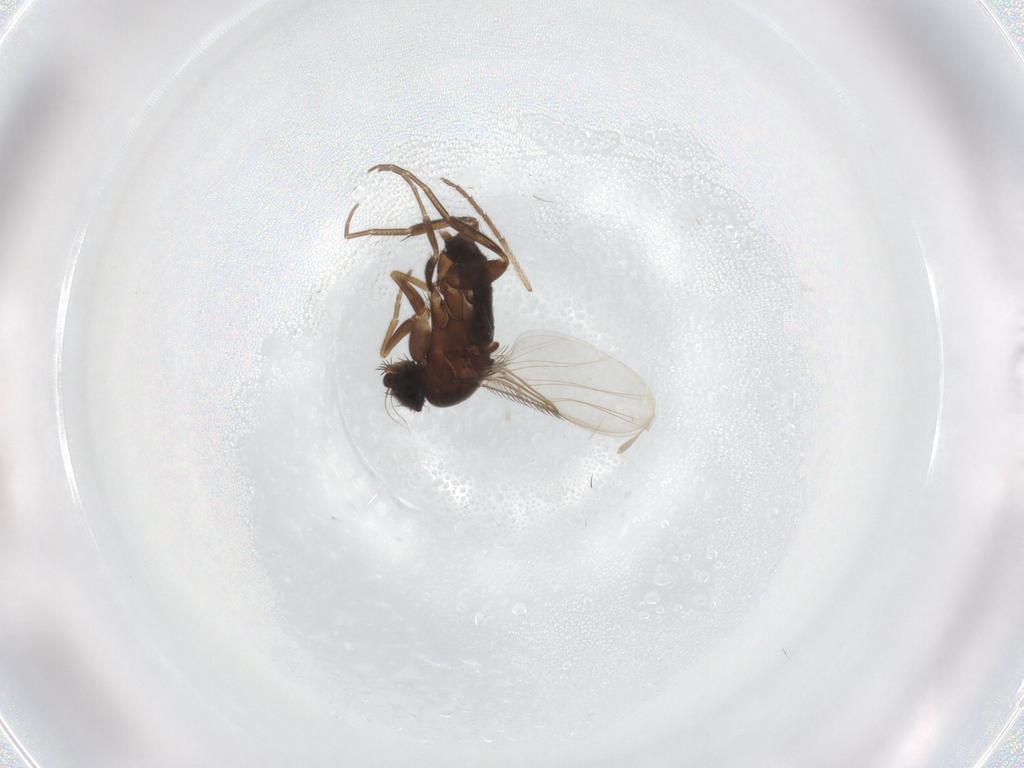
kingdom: Animalia
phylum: Arthropoda
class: Insecta
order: Diptera
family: Phoridae
